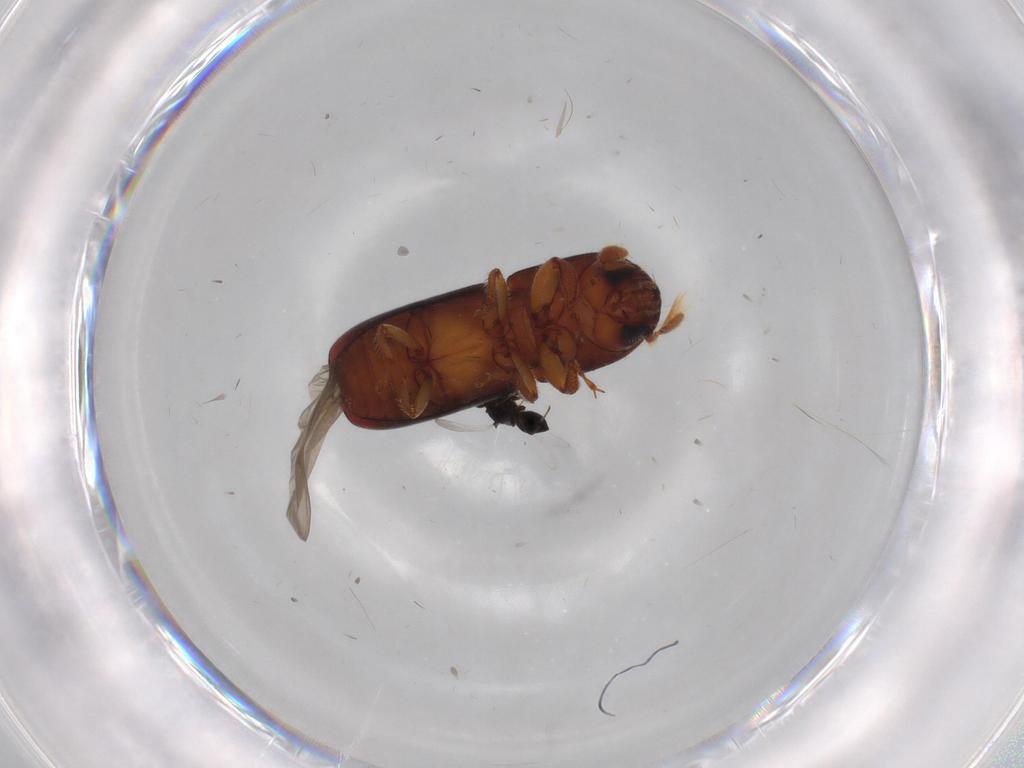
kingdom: Animalia
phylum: Arthropoda
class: Insecta
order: Coleoptera
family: Curculionidae
